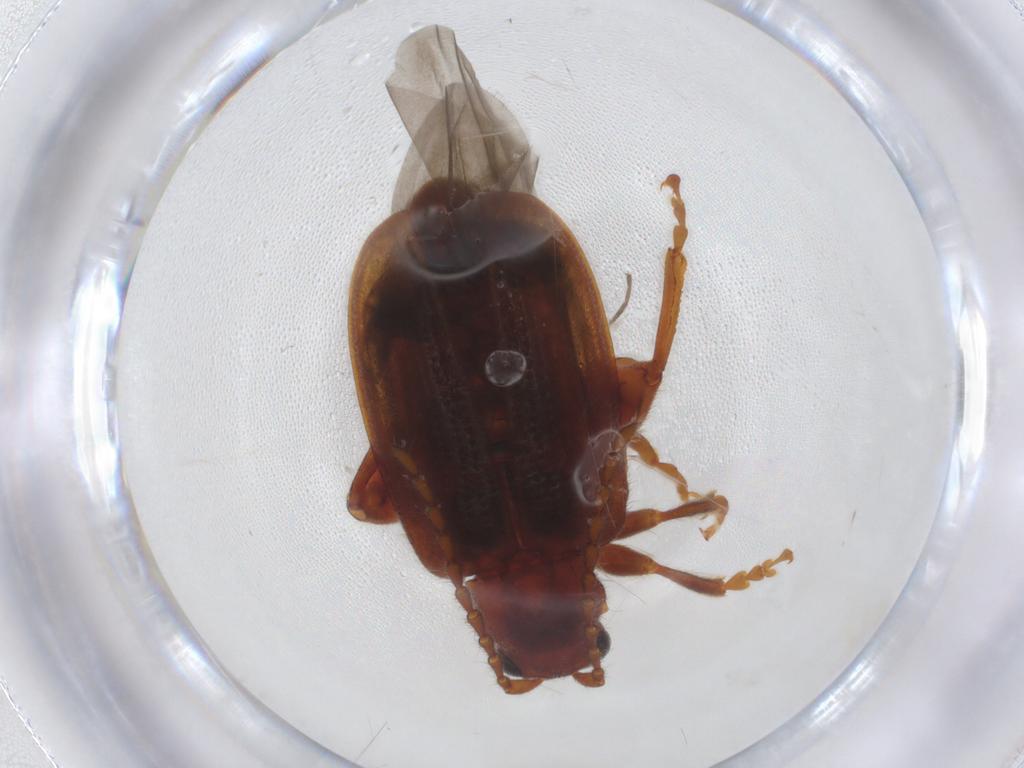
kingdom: Animalia
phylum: Arthropoda
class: Insecta
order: Coleoptera
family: Chrysomelidae
